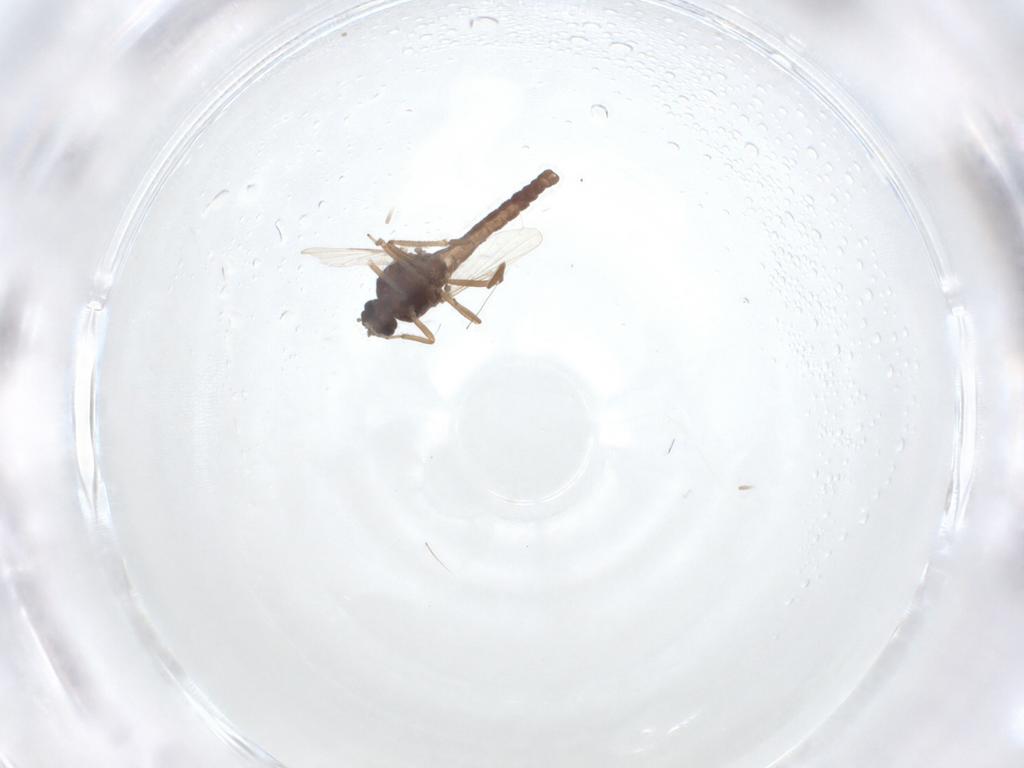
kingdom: Animalia
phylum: Arthropoda
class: Insecta
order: Diptera
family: Ceratopogonidae
